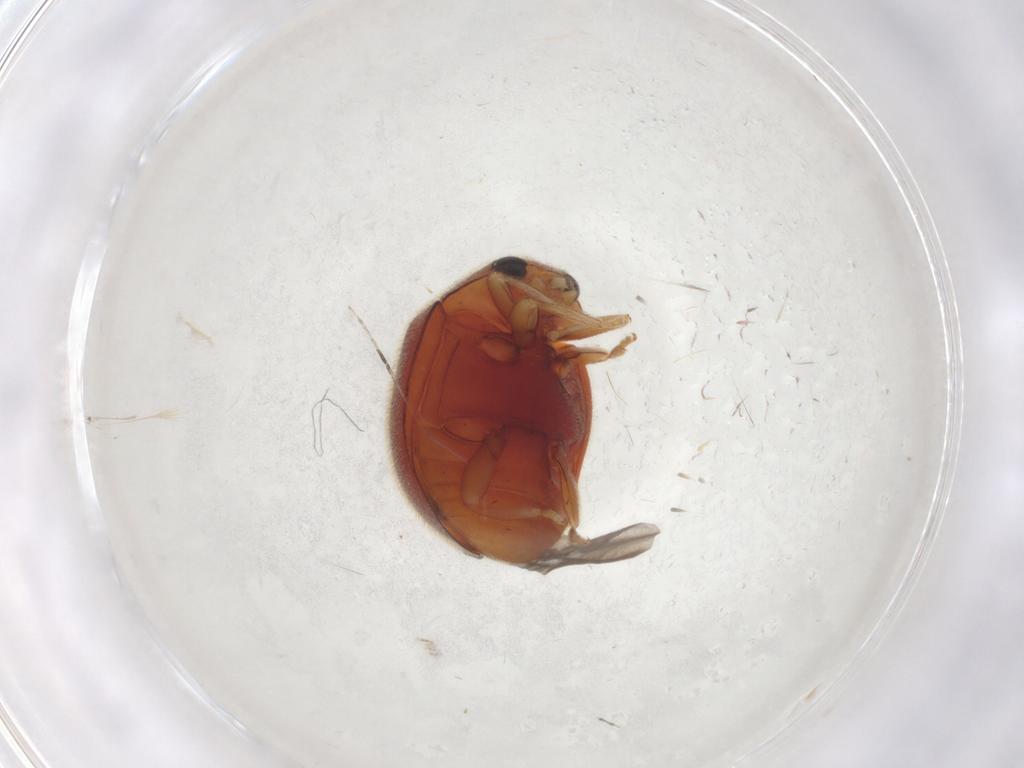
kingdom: Animalia
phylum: Arthropoda
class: Insecta
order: Coleoptera
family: Coccinellidae
